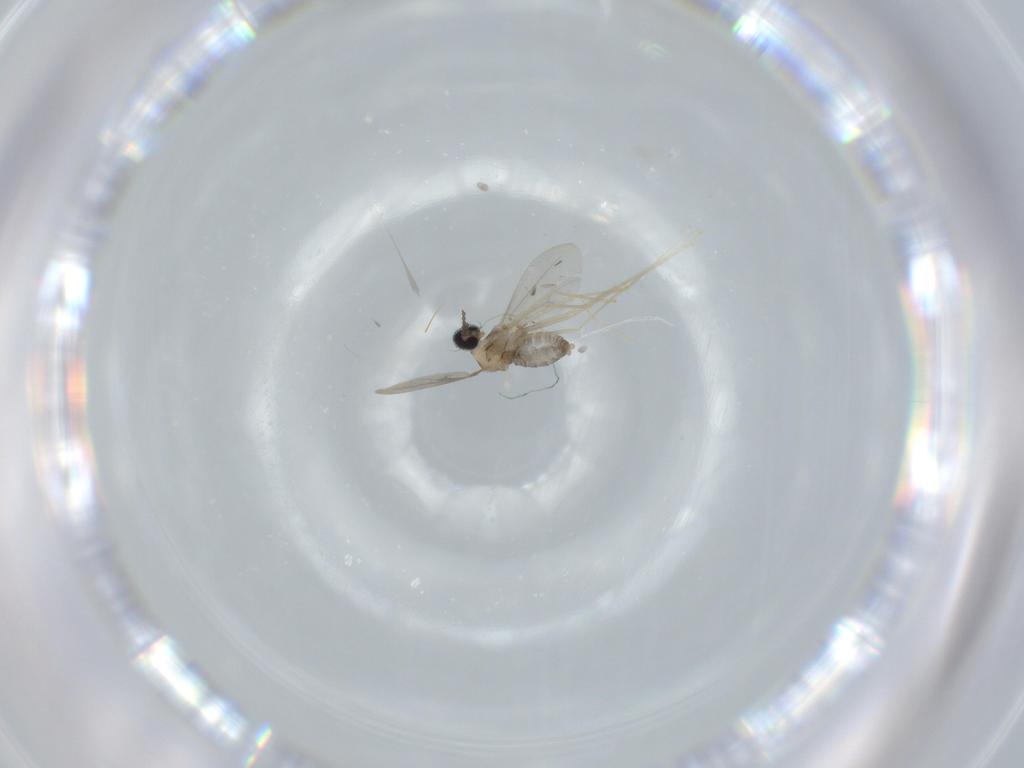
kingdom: Animalia
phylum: Arthropoda
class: Insecta
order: Diptera
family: Cecidomyiidae
